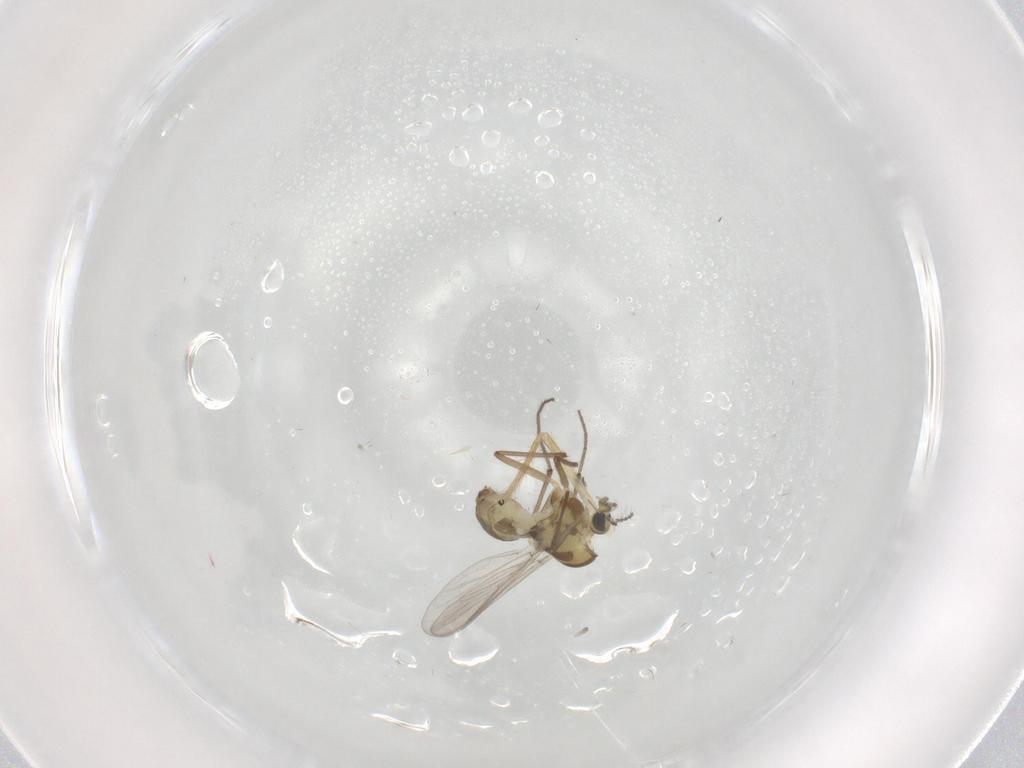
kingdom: Animalia
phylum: Arthropoda
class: Insecta
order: Diptera
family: Chironomidae
